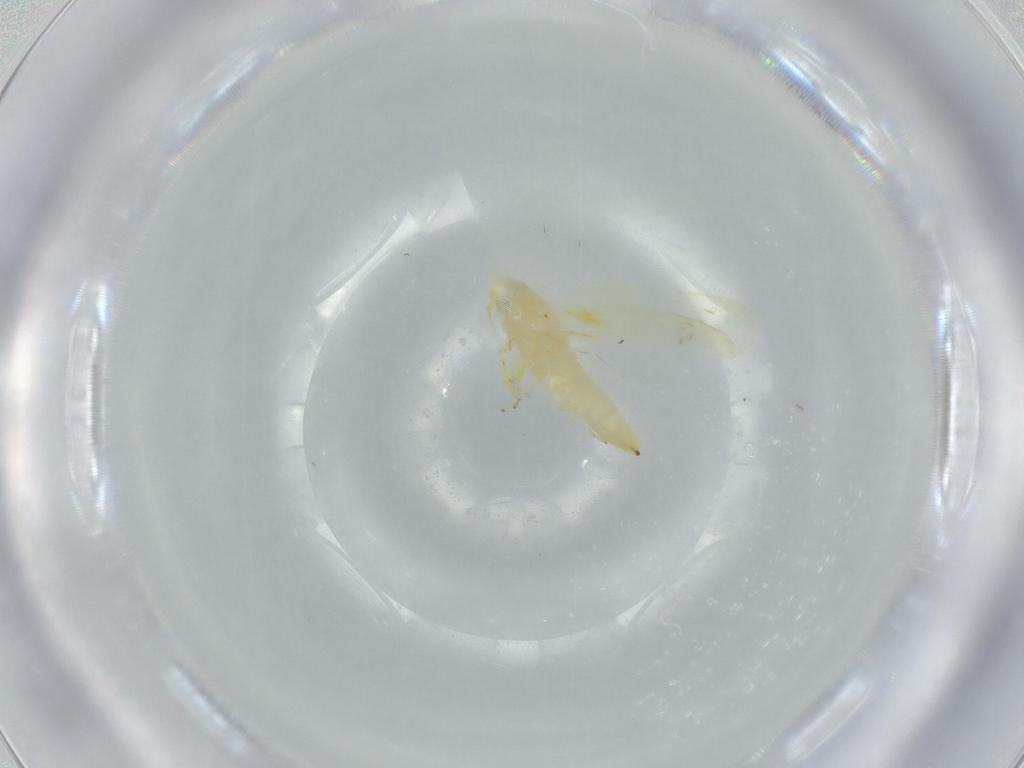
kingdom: Animalia
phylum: Arthropoda
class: Insecta
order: Hemiptera
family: Cicadellidae
